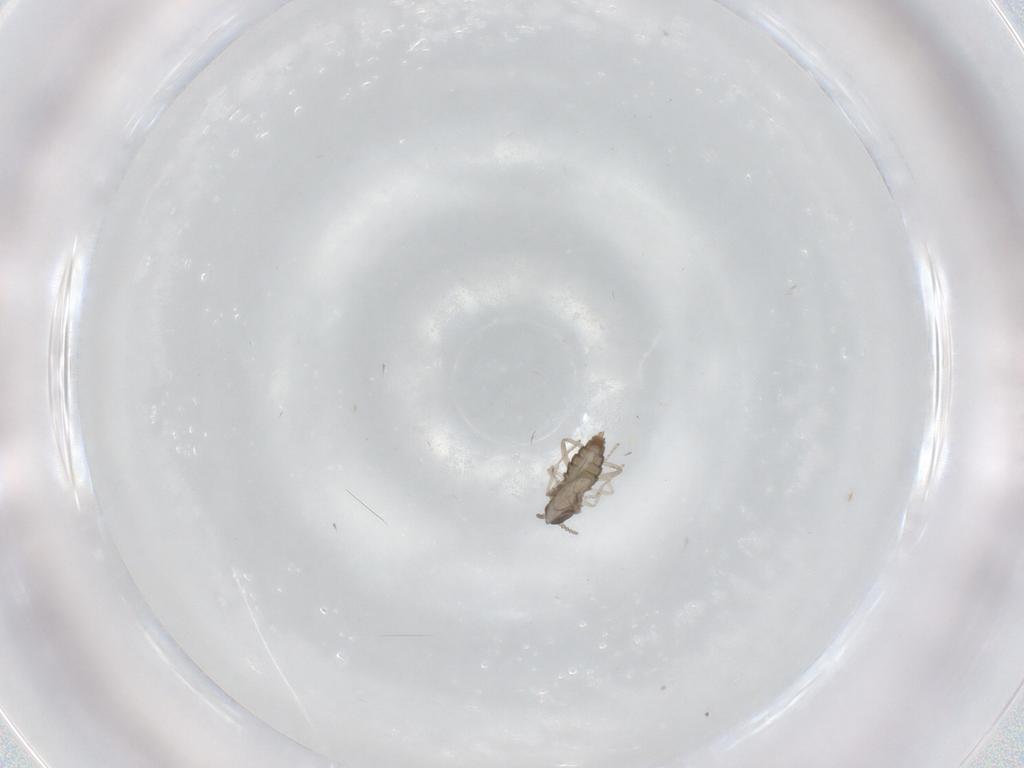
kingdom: Animalia
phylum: Arthropoda
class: Insecta
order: Diptera
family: Cecidomyiidae
